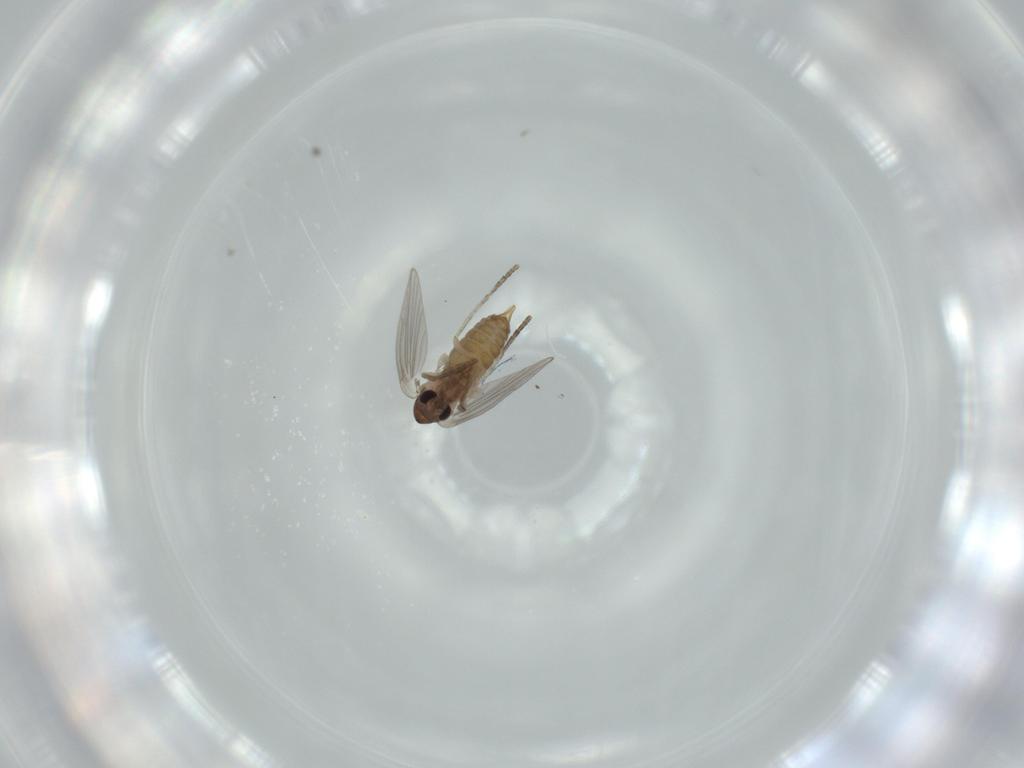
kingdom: Animalia
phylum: Arthropoda
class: Insecta
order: Diptera
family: Psychodidae
